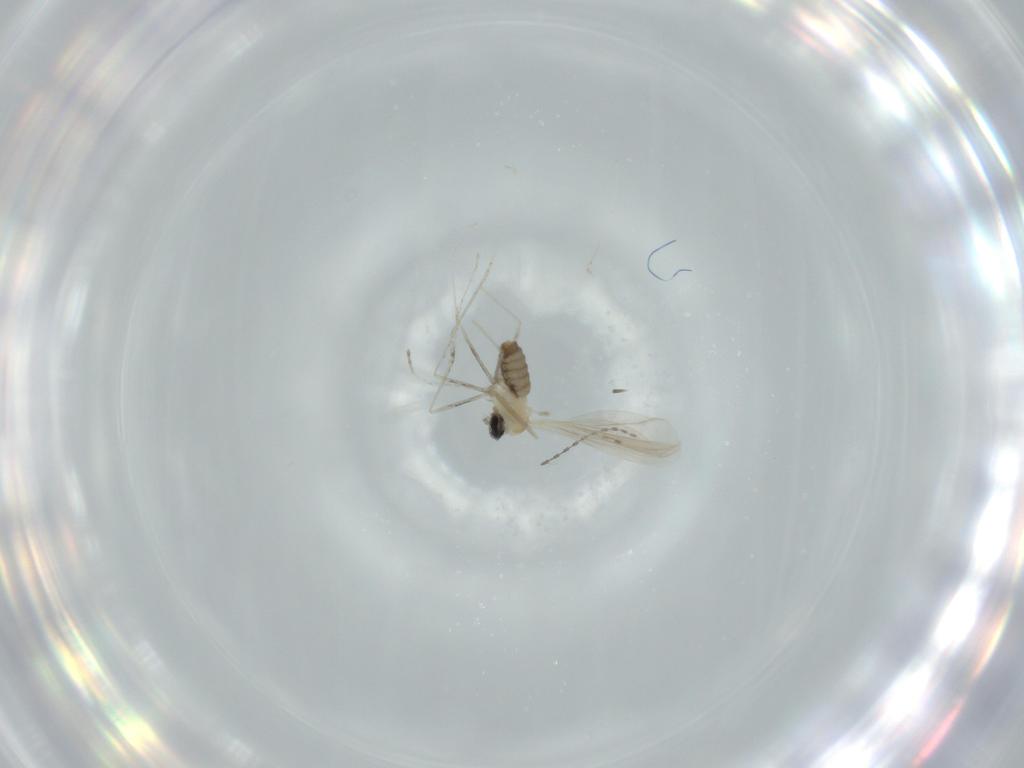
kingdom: Animalia
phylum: Arthropoda
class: Insecta
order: Diptera
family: Cecidomyiidae
